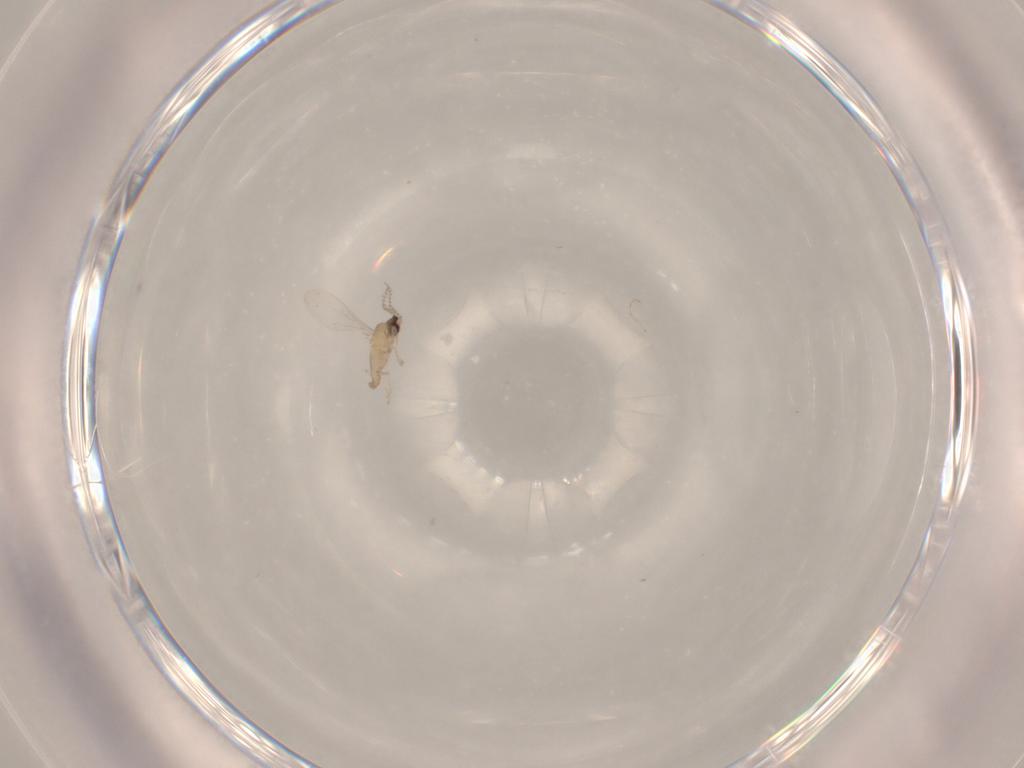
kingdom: Animalia
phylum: Arthropoda
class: Insecta
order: Diptera
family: Cecidomyiidae
